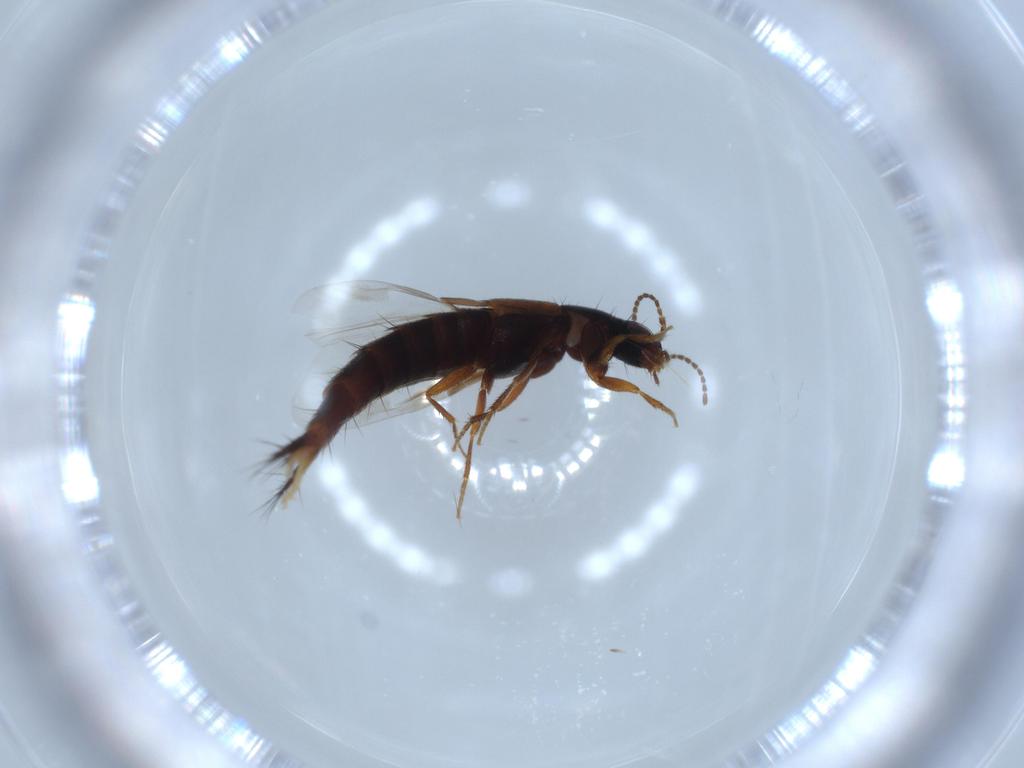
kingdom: Animalia
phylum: Arthropoda
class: Insecta
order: Coleoptera
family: Staphylinidae
